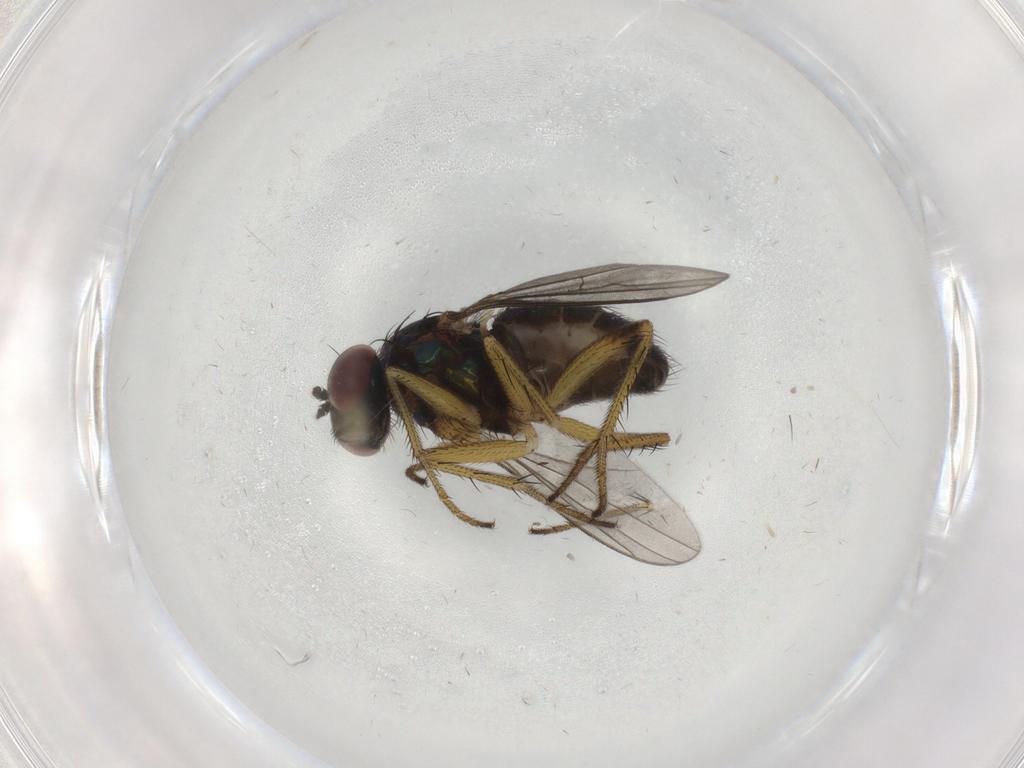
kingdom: Animalia
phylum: Arthropoda
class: Insecta
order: Diptera
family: Dolichopodidae
